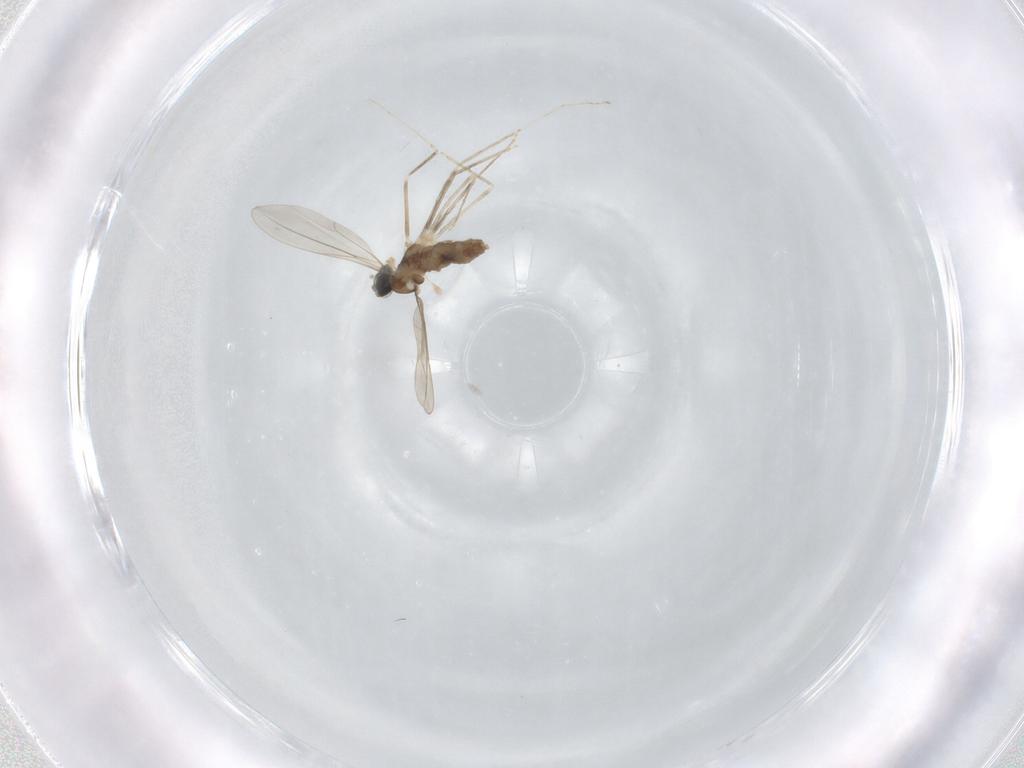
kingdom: Animalia
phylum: Arthropoda
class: Insecta
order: Diptera
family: Cecidomyiidae
